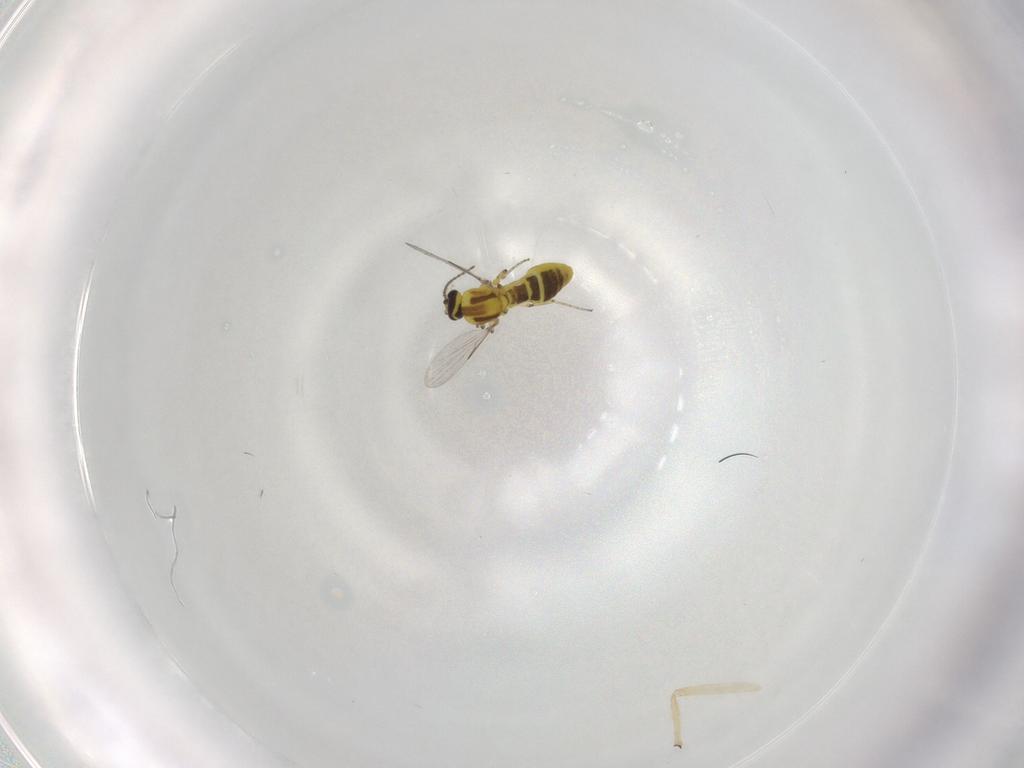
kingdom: Animalia
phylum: Arthropoda
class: Insecta
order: Diptera
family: Ceratopogonidae
